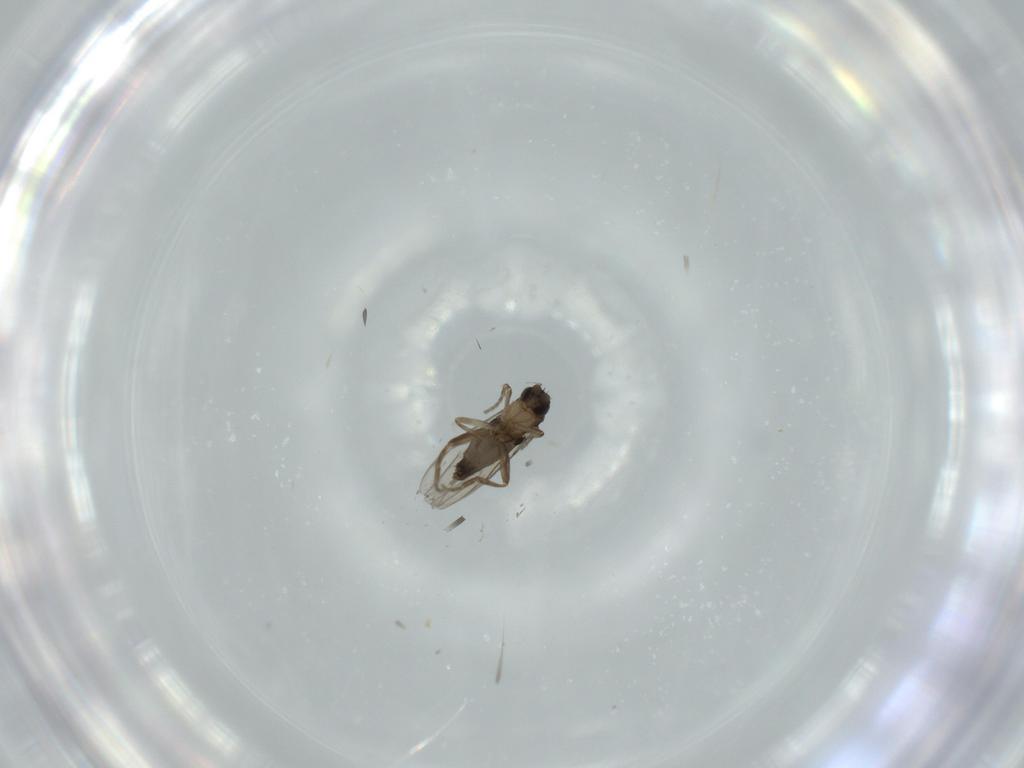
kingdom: Animalia
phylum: Arthropoda
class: Insecta
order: Diptera
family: Phoridae
